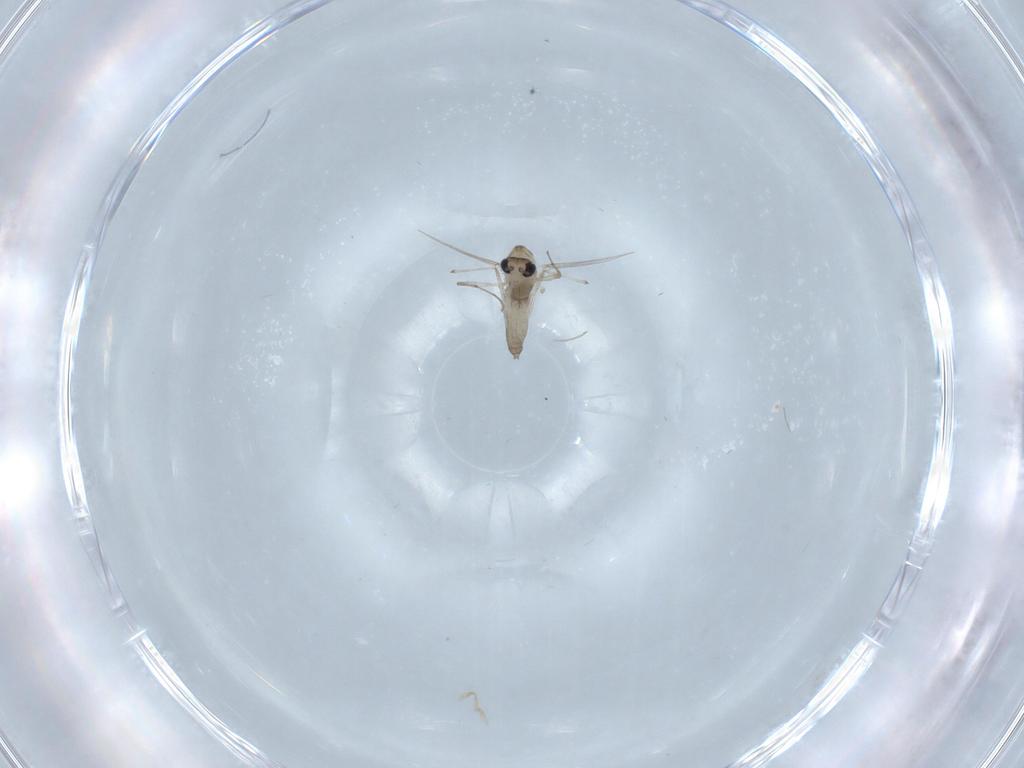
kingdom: Animalia
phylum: Arthropoda
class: Insecta
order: Diptera
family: Chironomidae
